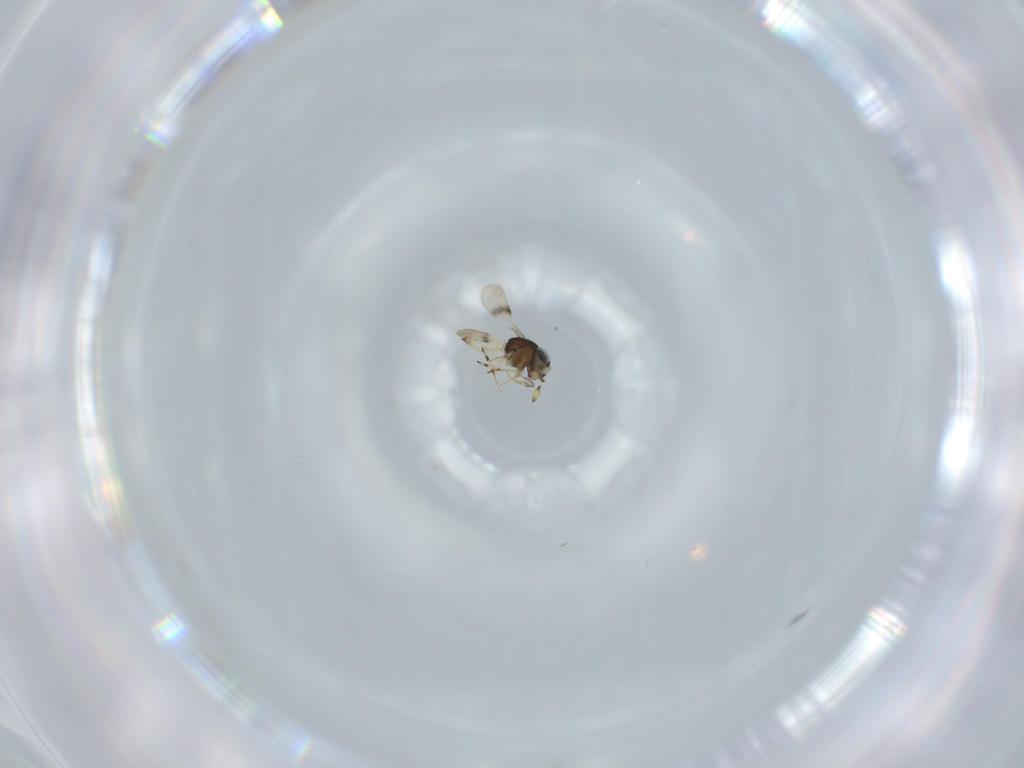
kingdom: Animalia
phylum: Arthropoda
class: Insecta
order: Hymenoptera
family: Scelionidae
